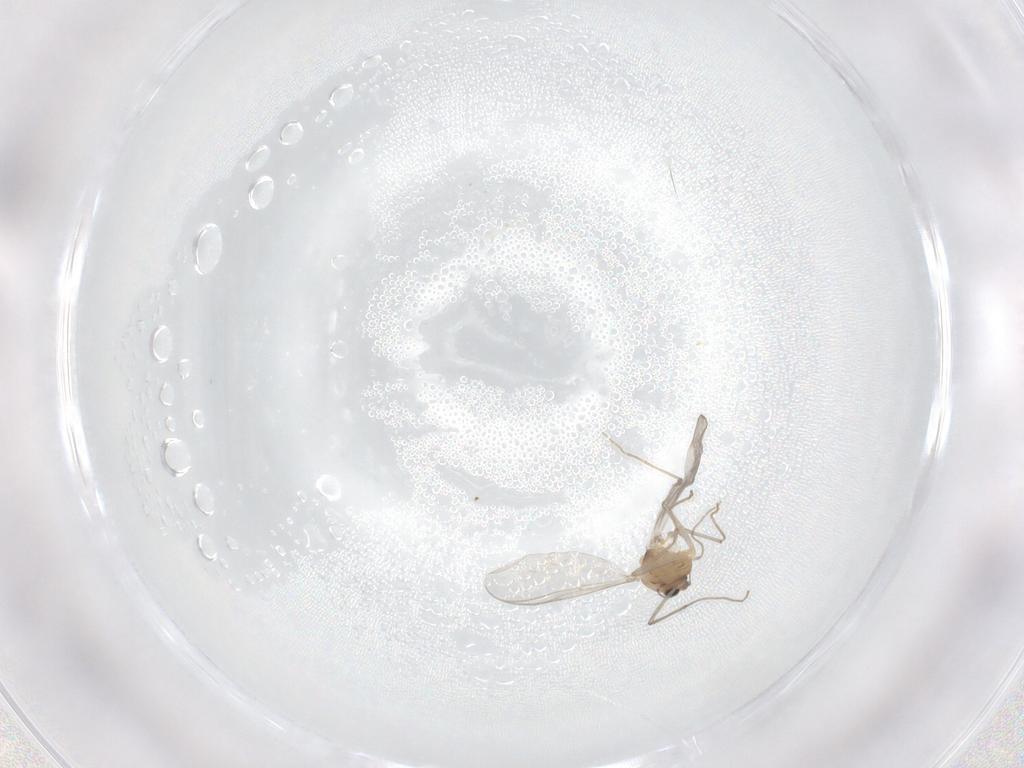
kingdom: Animalia
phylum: Arthropoda
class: Insecta
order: Diptera
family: Chironomidae
